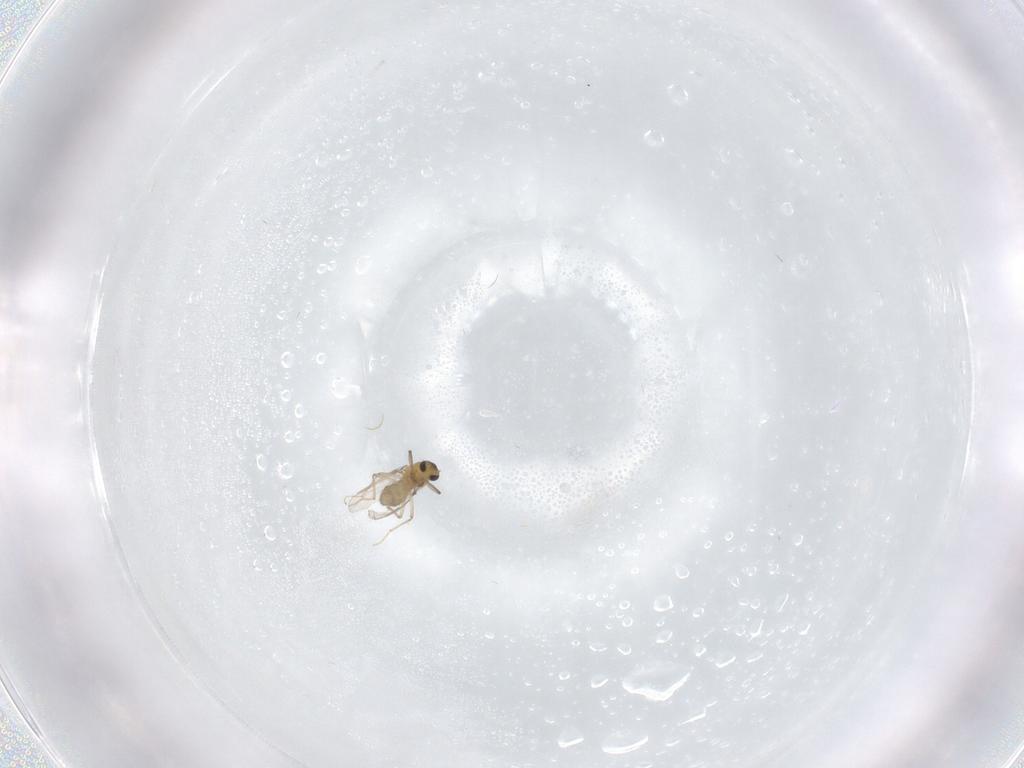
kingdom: Animalia
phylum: Arthropoda
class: Insecta
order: Diptera
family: Chironomidae
